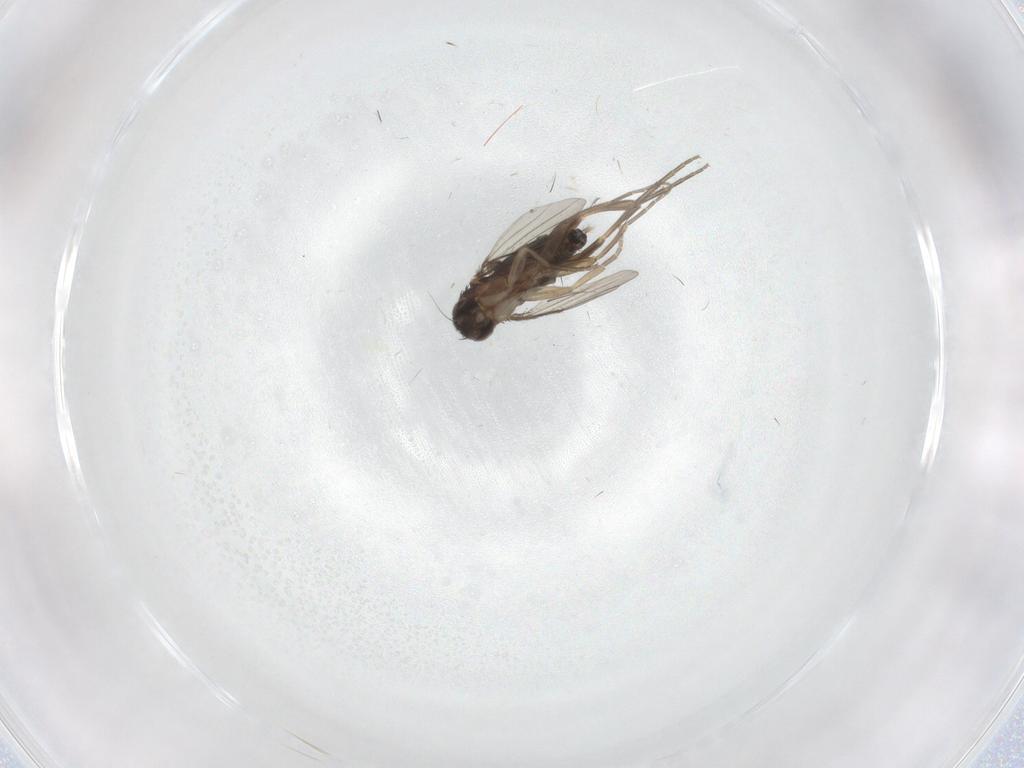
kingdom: Animalia
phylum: Arthropoda
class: Insecta
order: Diptera
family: Phoridae
